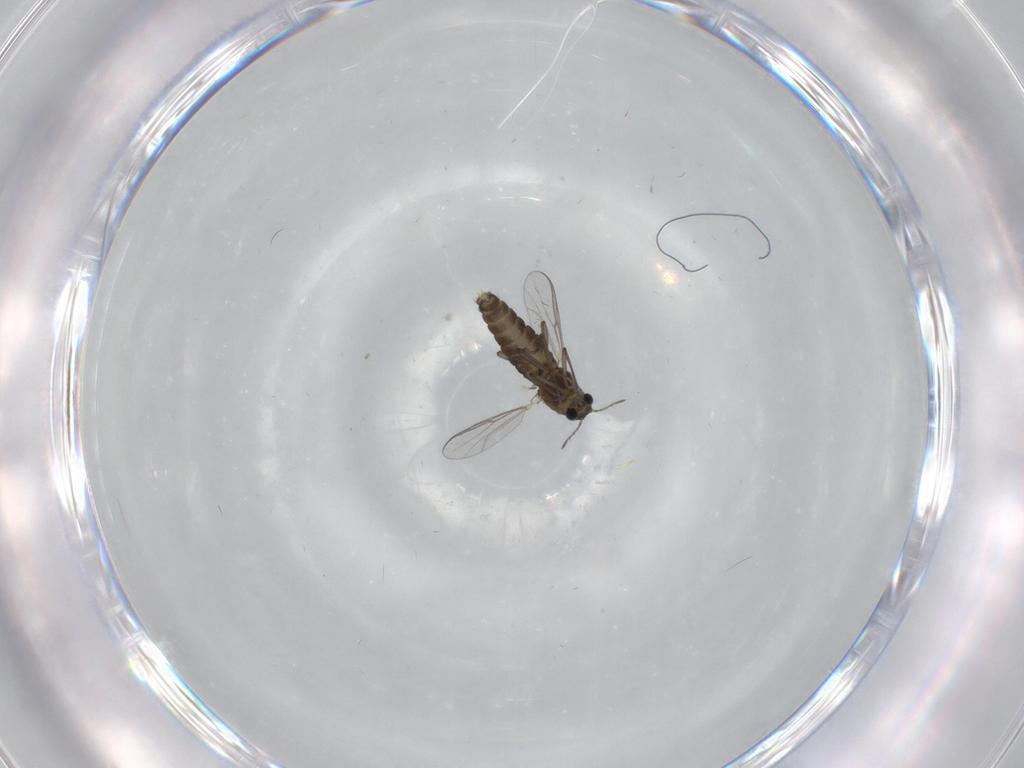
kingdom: Animalia
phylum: Arthropoda
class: Insecta
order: Diptera
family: Chironomidae
